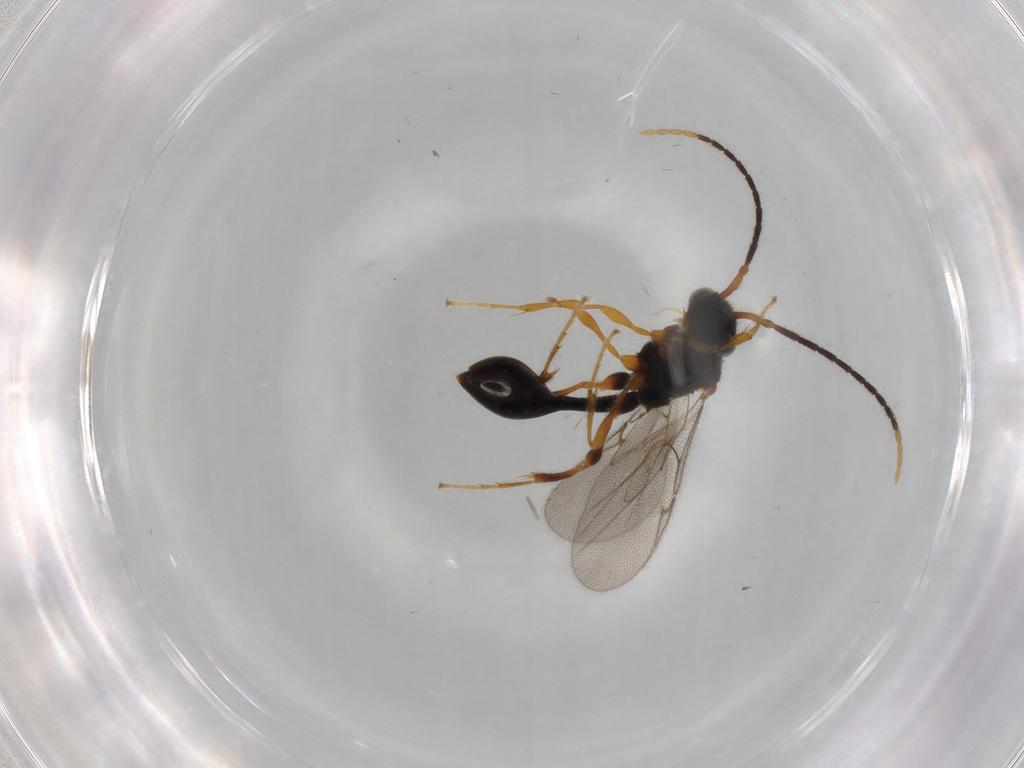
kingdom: Animalia
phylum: Arthropoda
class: Insecta
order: Hymenoptera
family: Diapriidae
